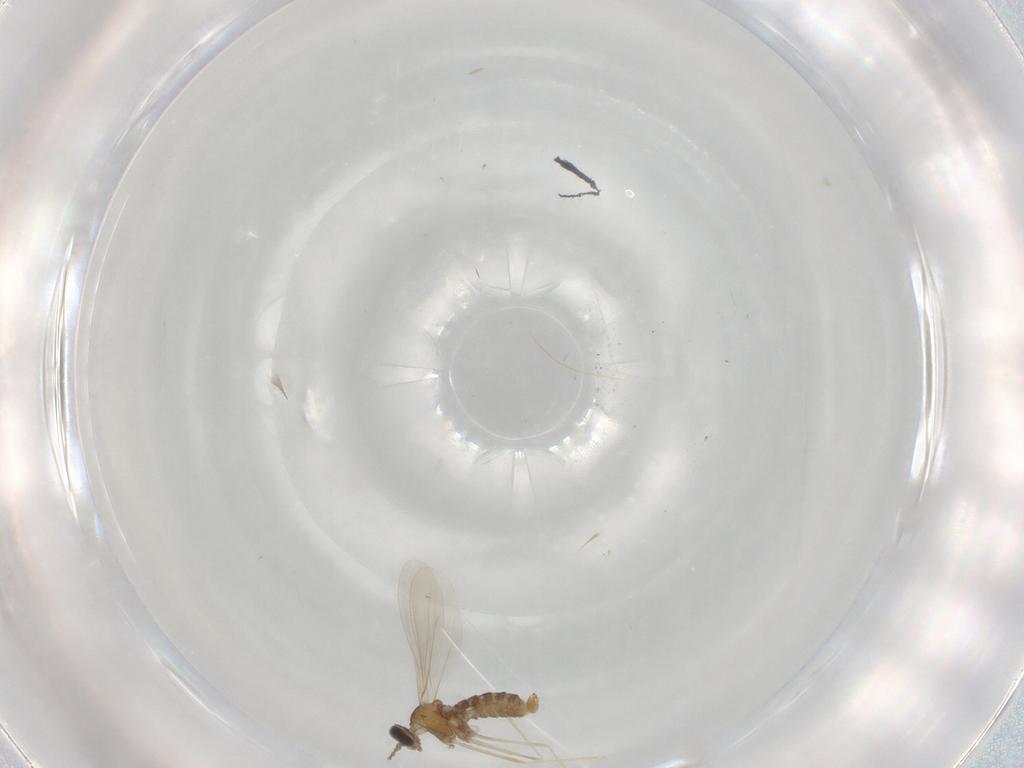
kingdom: Animalia
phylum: Arthropoda
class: Insecta
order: Diptera
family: Cecidomyiidae
